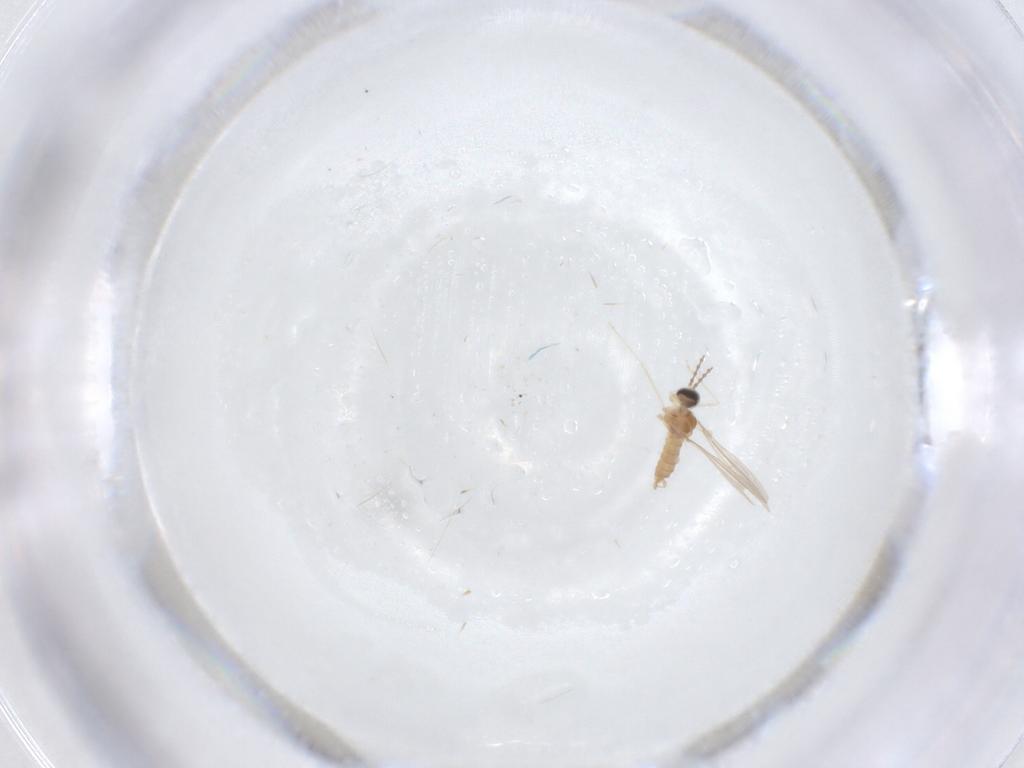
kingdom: Animalia
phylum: Arthropoda
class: Insecta
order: Diptera
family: Cecidomyiidae
